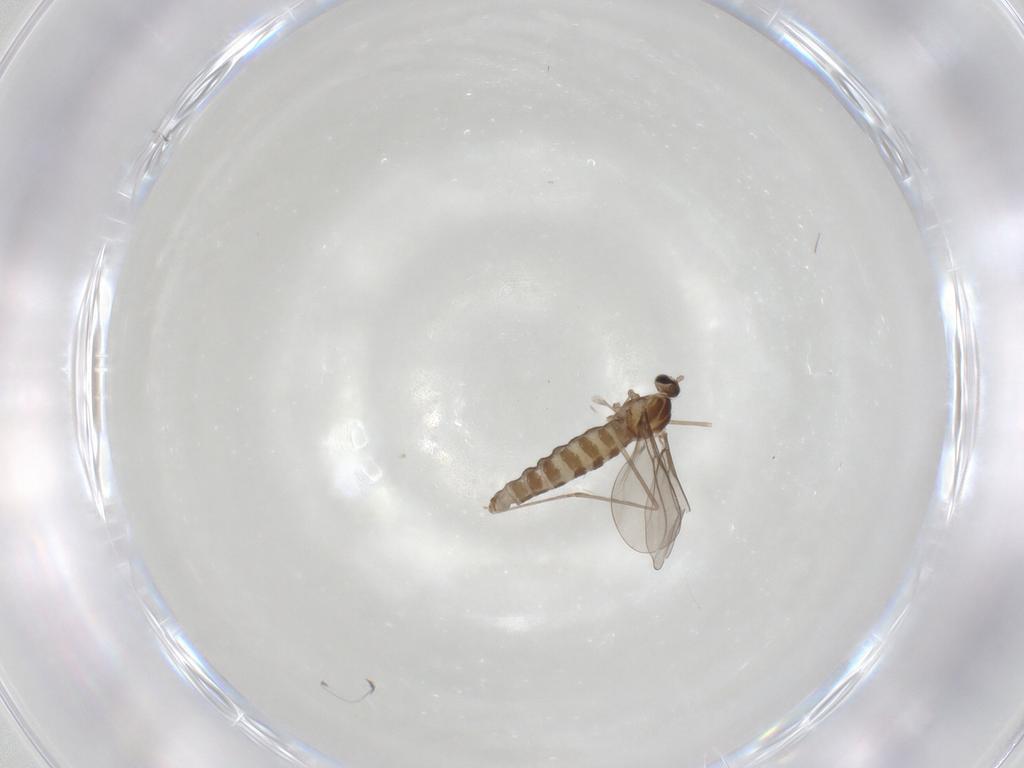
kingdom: Animalia
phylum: Arthropoda
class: Insecta
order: Diptera
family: Cecidomyiidae
